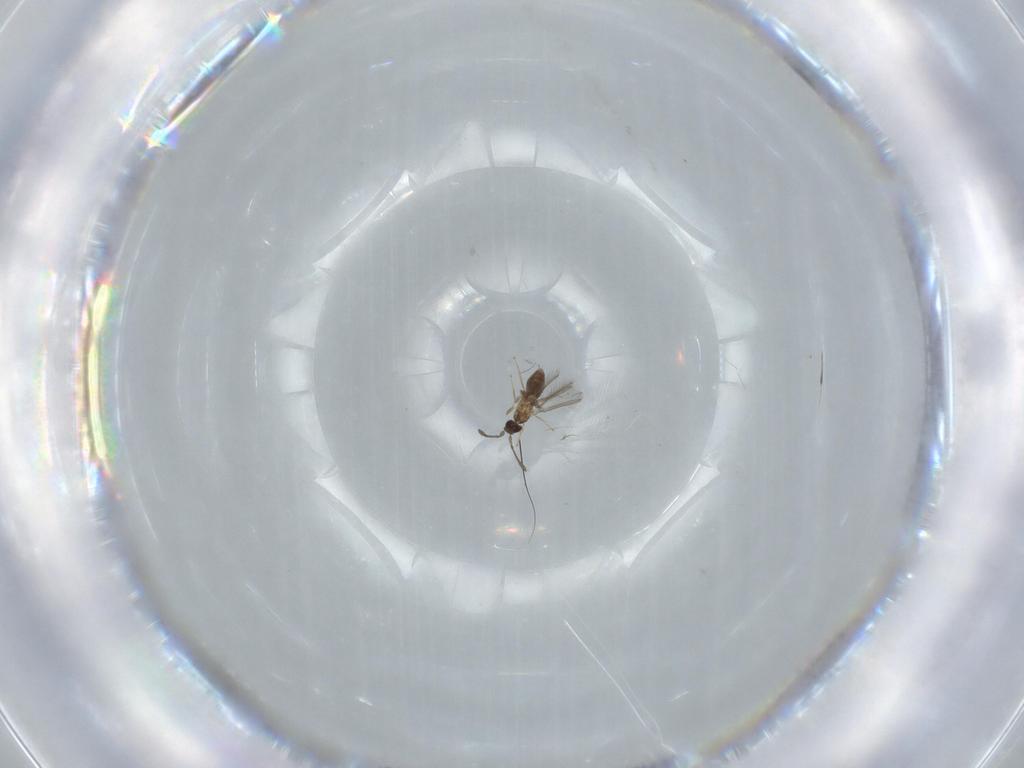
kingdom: Animalia
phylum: Arthropoda
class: Insecta
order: Hymenoptera
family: Mymaridae
